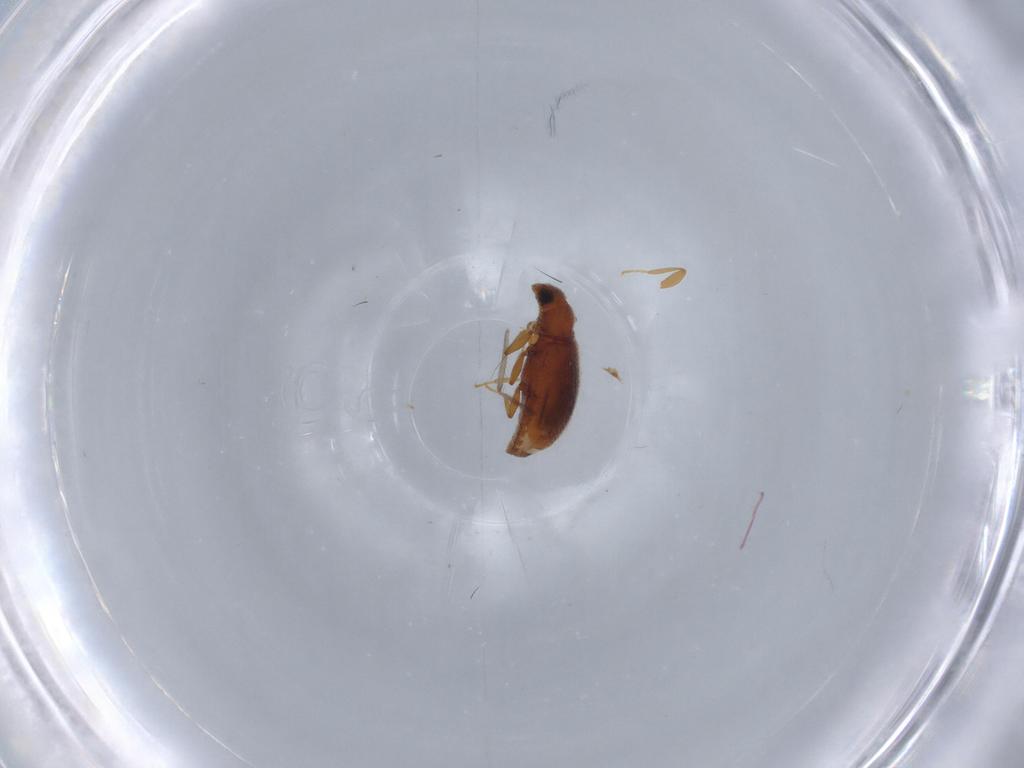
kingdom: Animalia
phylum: Arthropoda
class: Insecta
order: Coleoptera
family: Latridiidae
